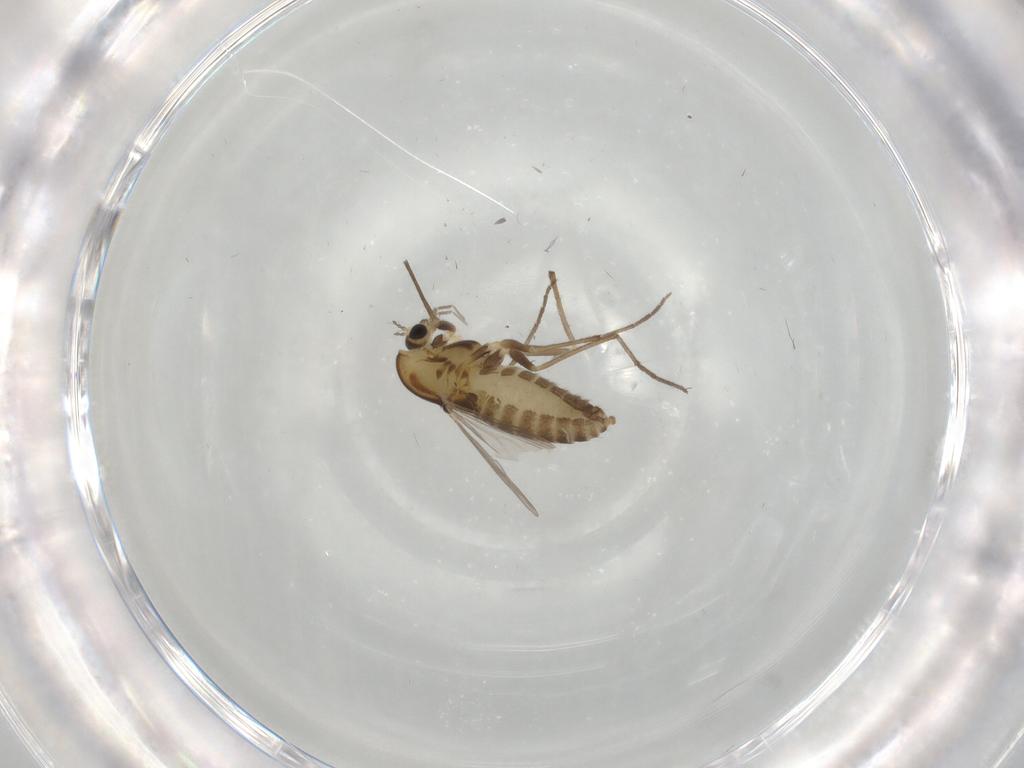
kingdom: Animalia
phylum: Arthropoda
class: Insecta
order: Diptera
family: Chironomidae
